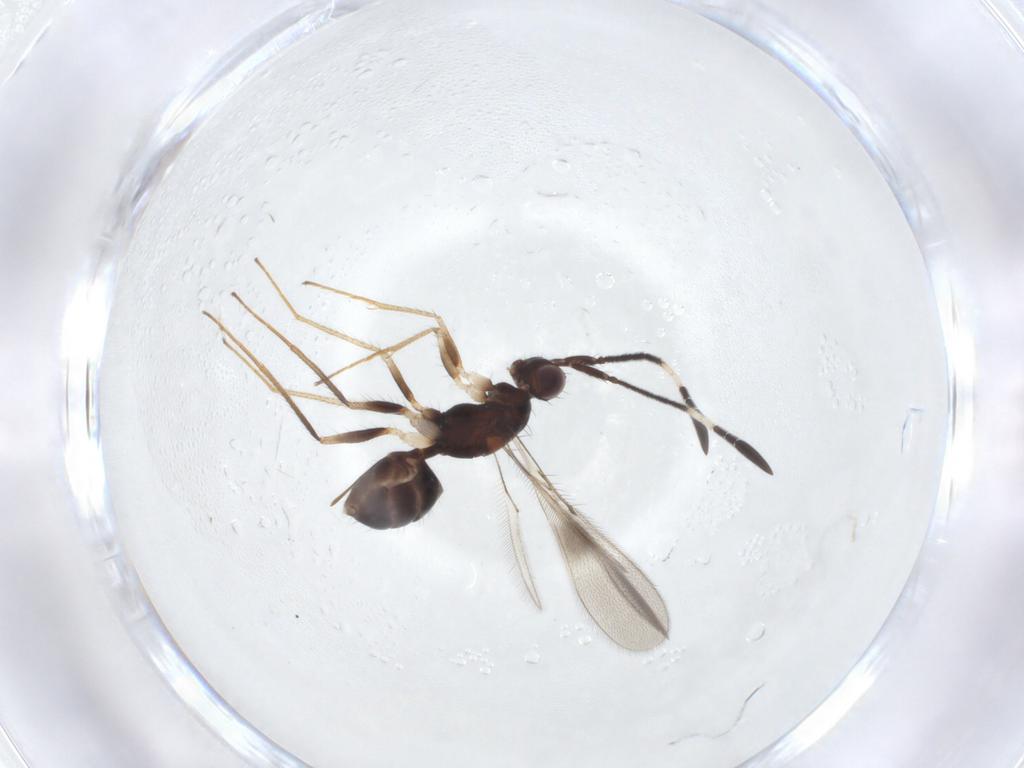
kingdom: Animalia
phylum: Arthropoda
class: Insecta
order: Hymenoptera
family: Mymaridae
